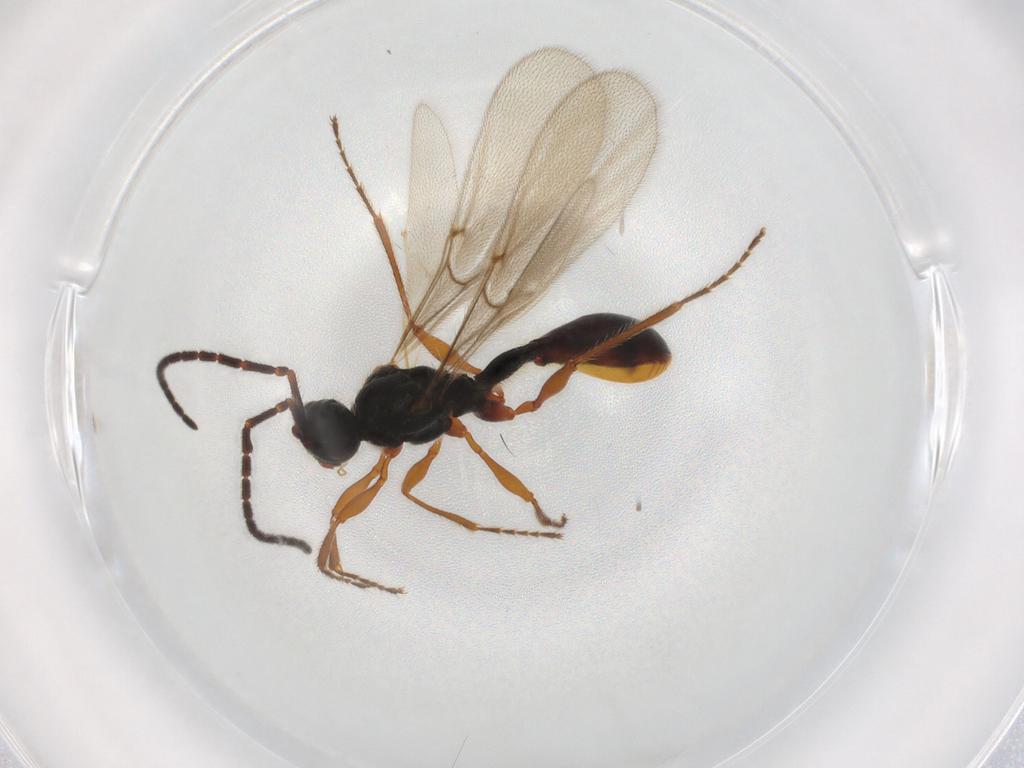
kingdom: Animalia
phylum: Arthropoda
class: Insecta
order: Hymenoptera
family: Diapriidae
